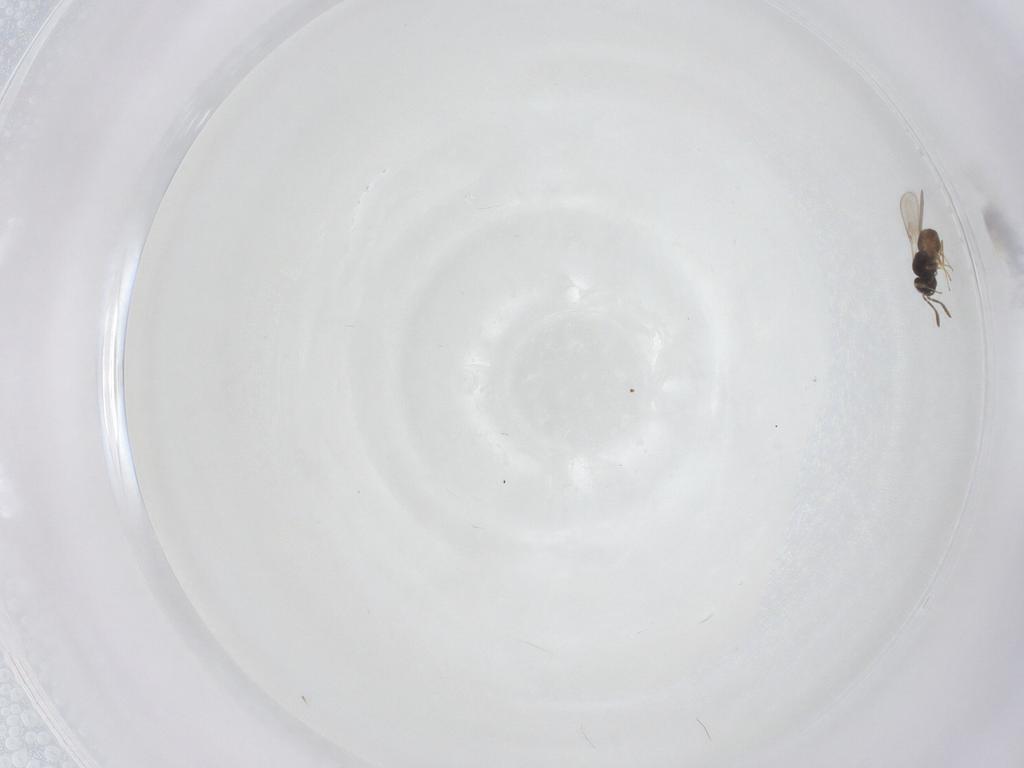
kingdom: Animalia
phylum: Arthropoda
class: Insecta
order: Hymenoptera
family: Scelionidae
